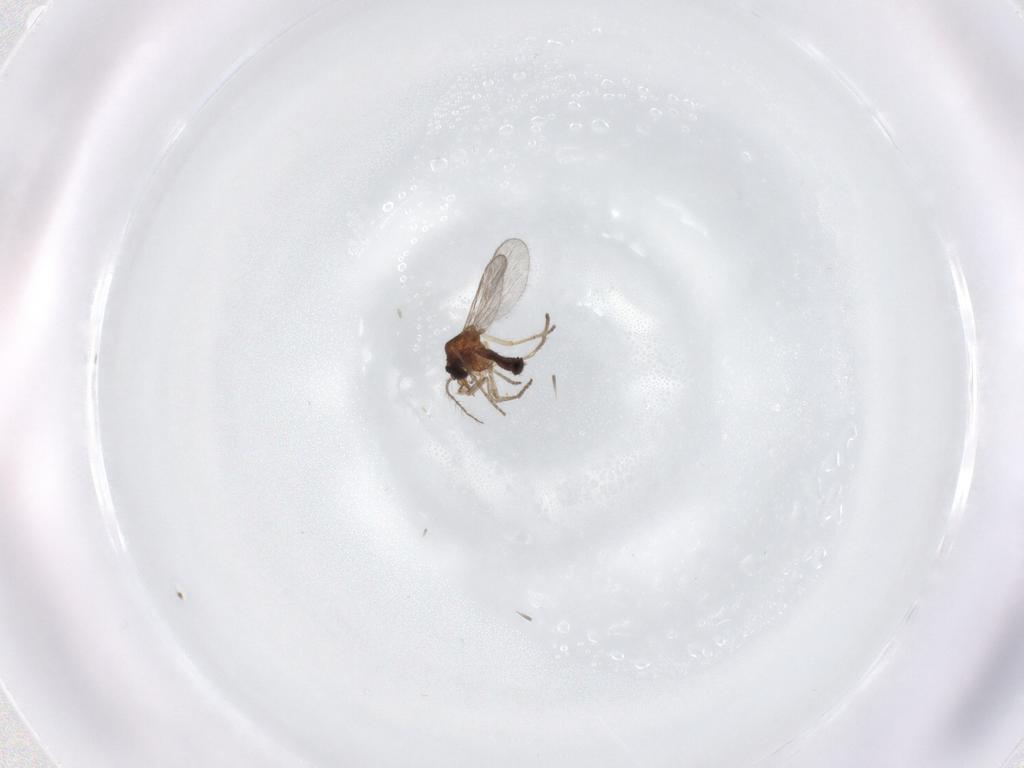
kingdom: Animalia
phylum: Arthropoda
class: Insecta
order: Diptera
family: Ceratopogonidae
